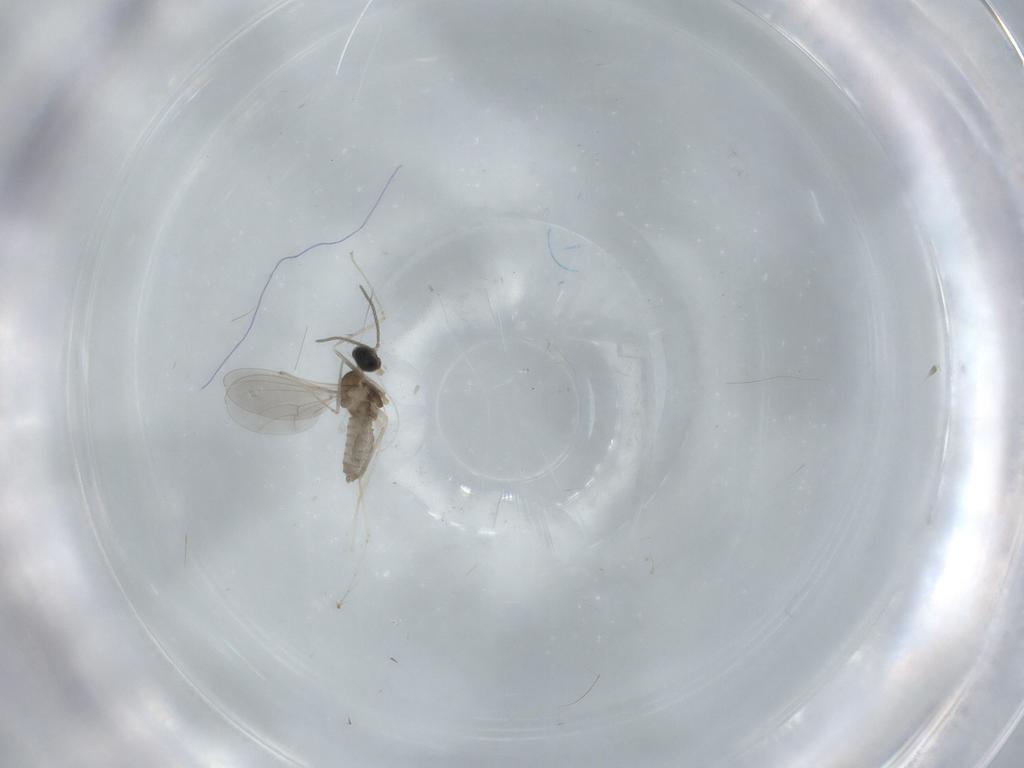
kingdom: Animalia
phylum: Arthropoda
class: Insecta
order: Diptera
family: Cecidomyiidae
